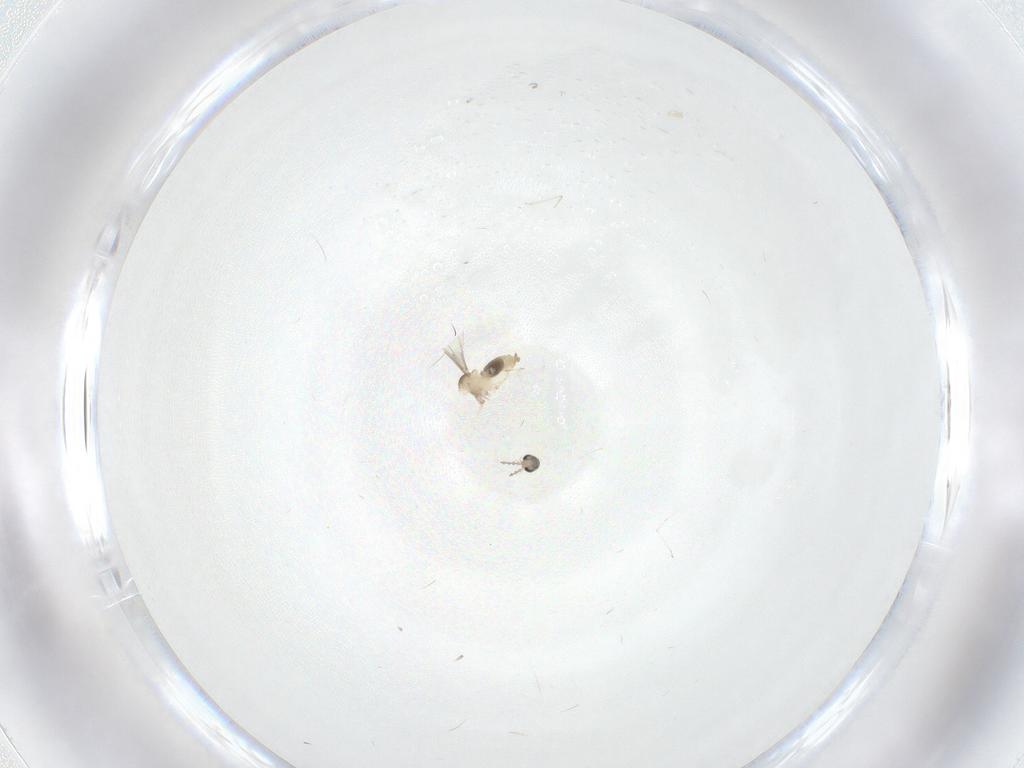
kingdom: Animalia
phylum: Arthropoda
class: Insecta
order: Diptera
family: Cecidomyiidae
